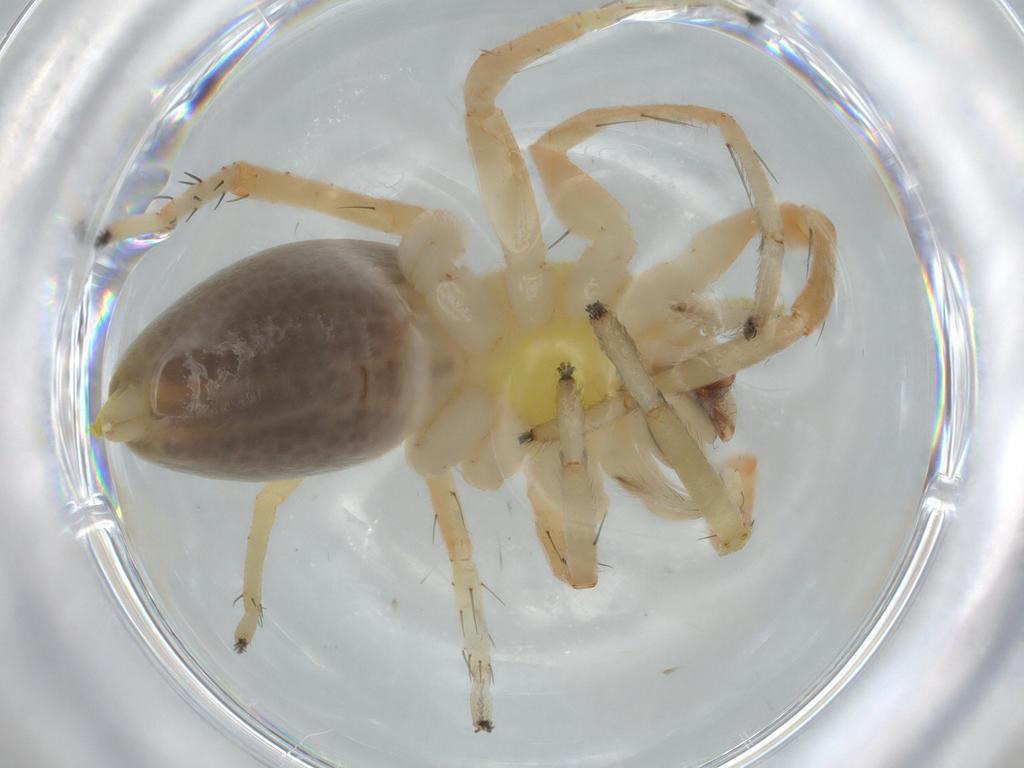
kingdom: Animalia
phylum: Arthropoda
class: Arachnida
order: Araneae
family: Anyphaenidae
